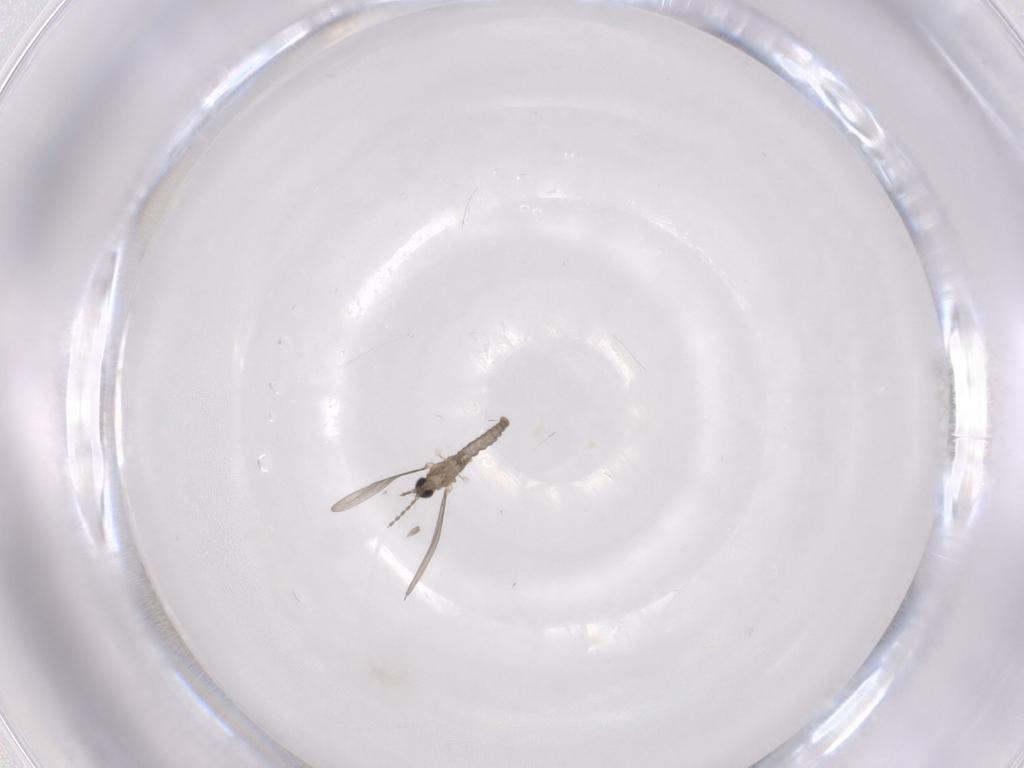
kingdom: Animalia
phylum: Arthropoda
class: Insecta
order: Diptera
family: Cecidomyiidae
